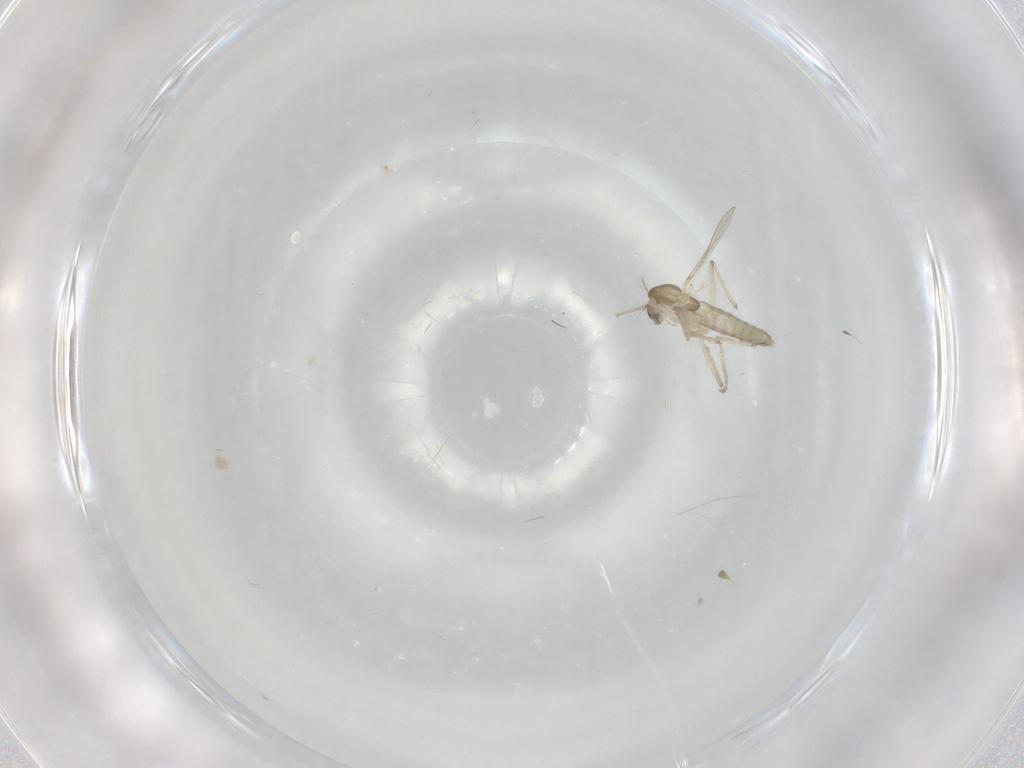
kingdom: Animalia
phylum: Arthropoda
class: Insecta
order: Diptera
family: Chironomidae
